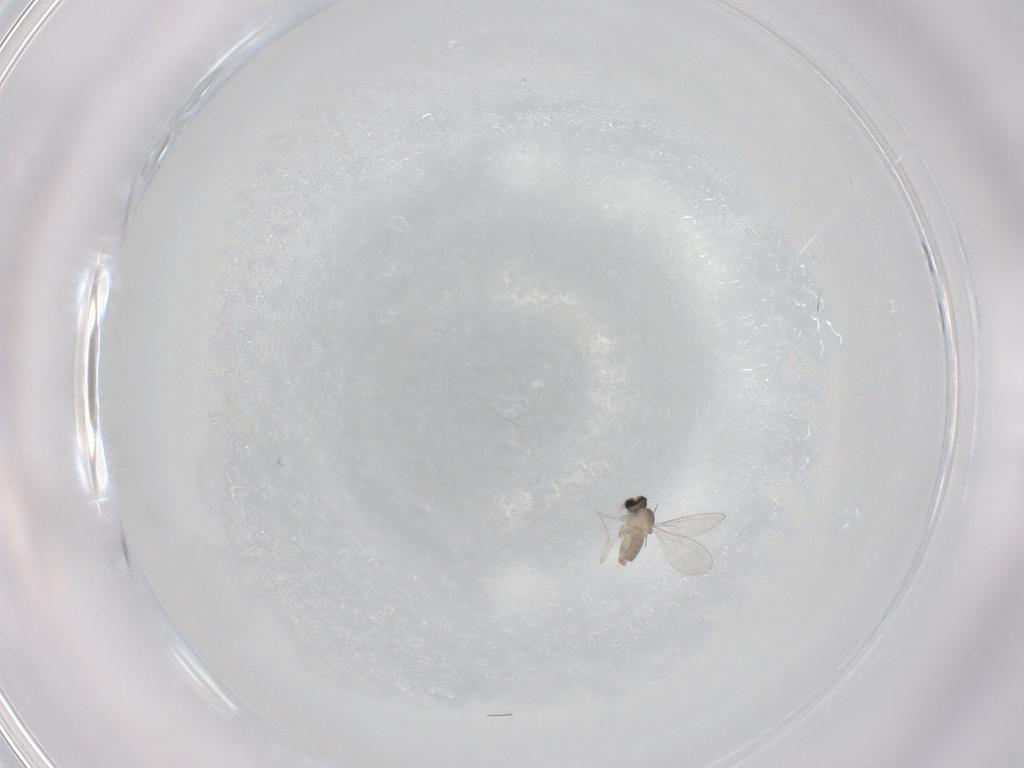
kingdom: Animalia
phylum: Arthropoda
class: Insecta
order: Diptera
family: Cecidomyiidae
